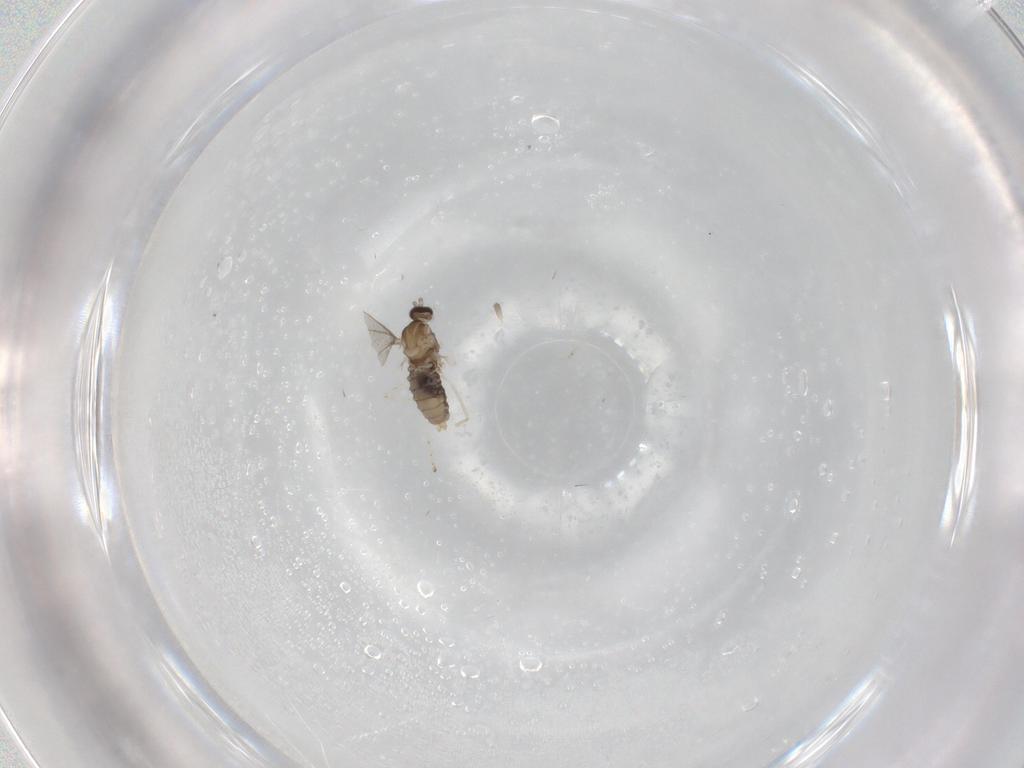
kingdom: Animalia
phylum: Arthropoda
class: Insecta
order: Diptera
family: Cecidomyiidae
